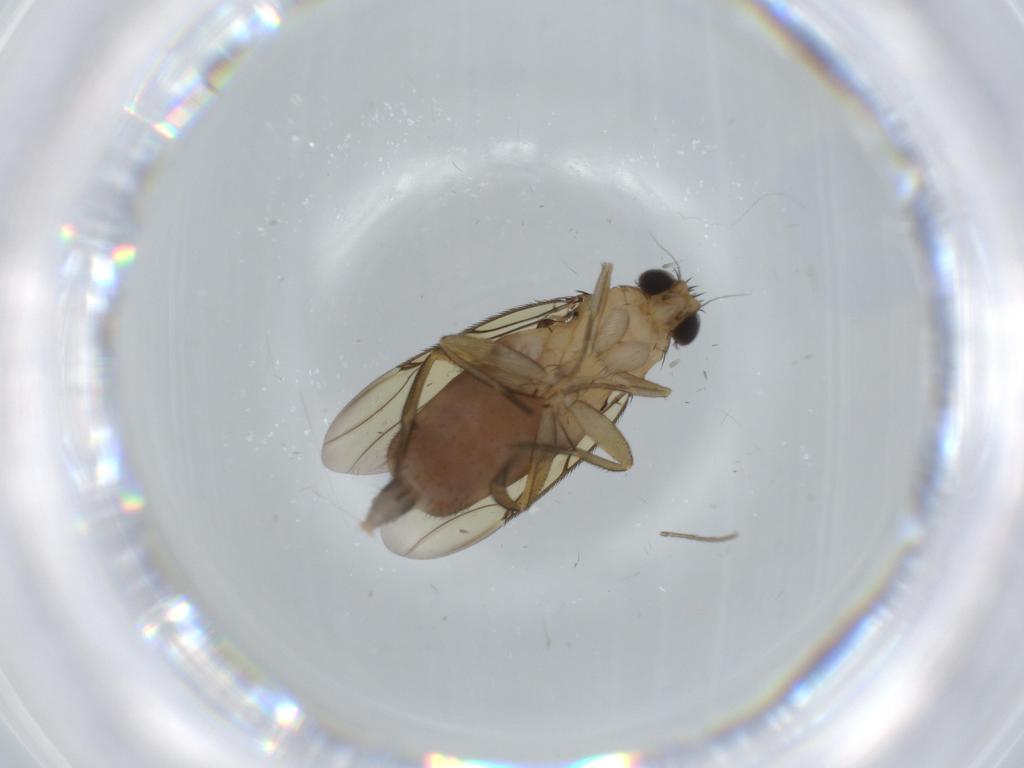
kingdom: Animalia
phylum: Arthropoda
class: Insecta
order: Diptera
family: Drosophilidae
